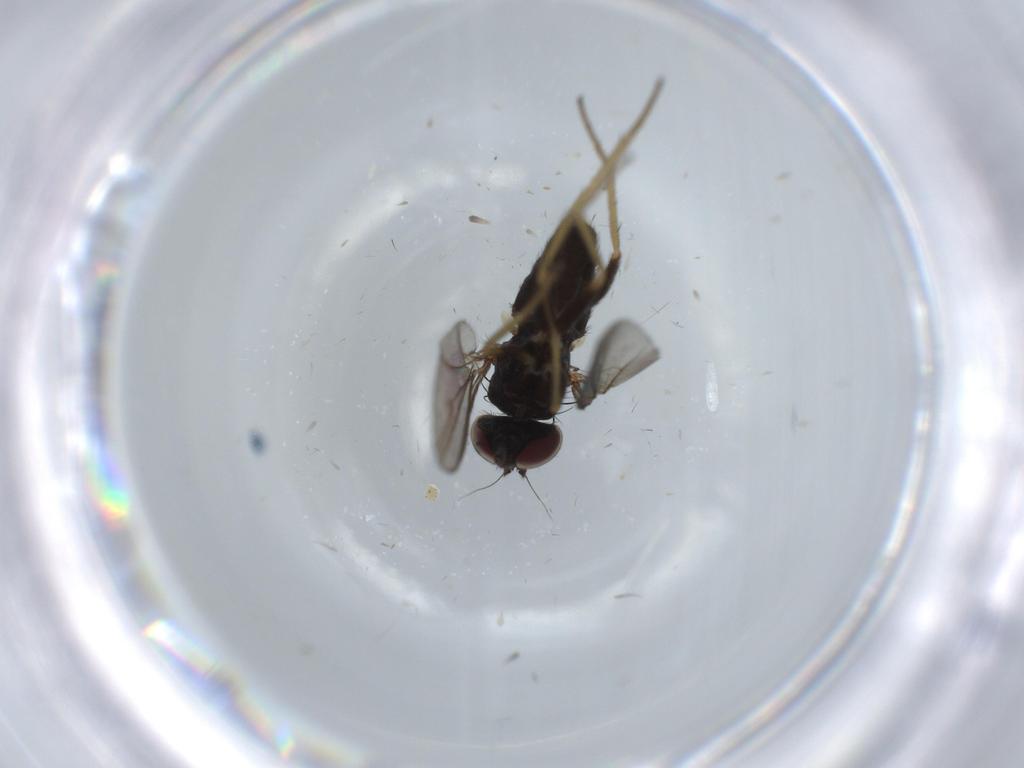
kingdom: Animalia
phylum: Arthropoda
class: Insecta
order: Diptera
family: Dolichopodidae
